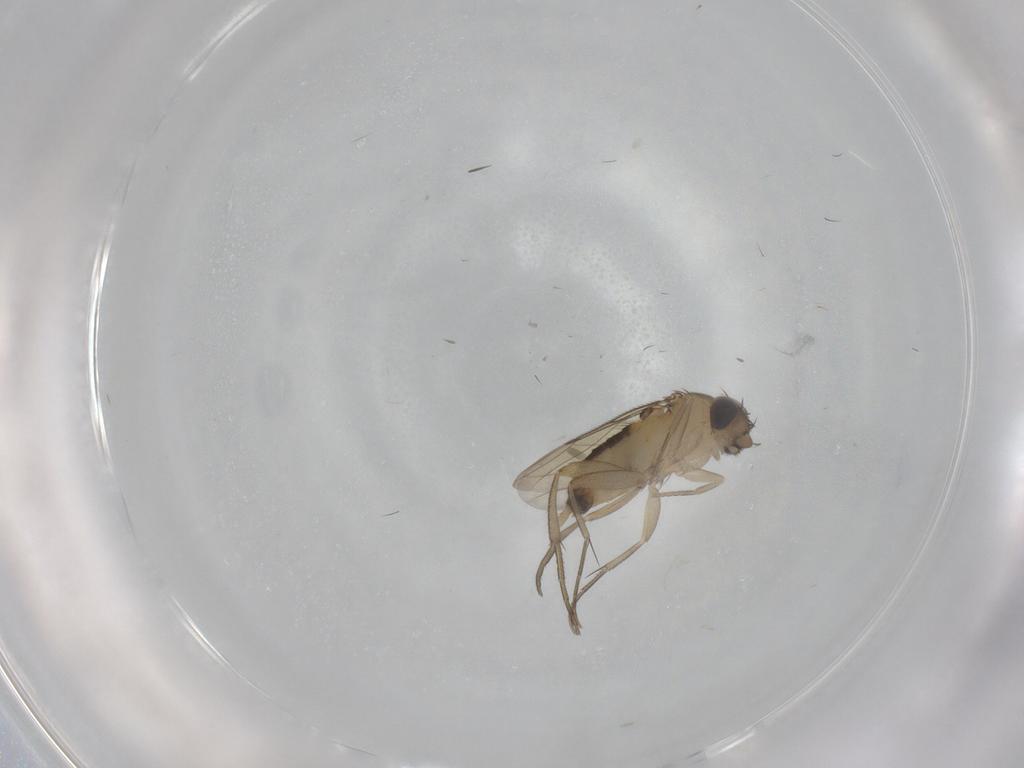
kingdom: Animalia
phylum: Arthropoda
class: Insecta
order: Diptera
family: Phoridae
